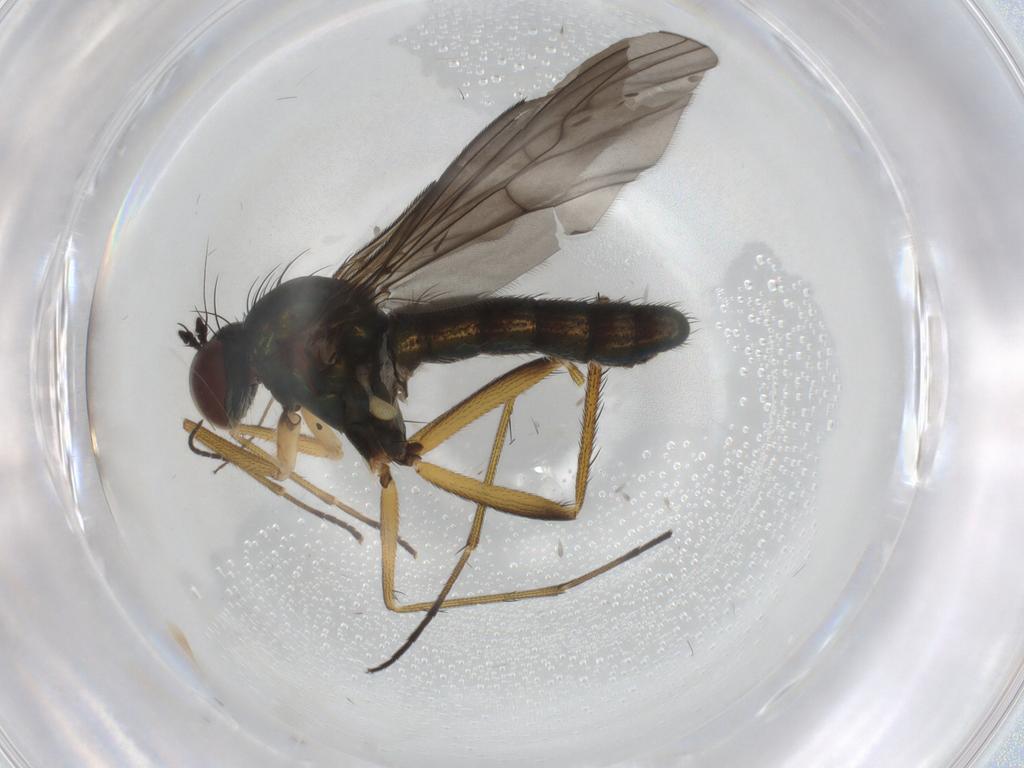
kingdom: Animalia
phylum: Arthropoda
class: Insecta
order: Diptera
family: Dolichopodidae
